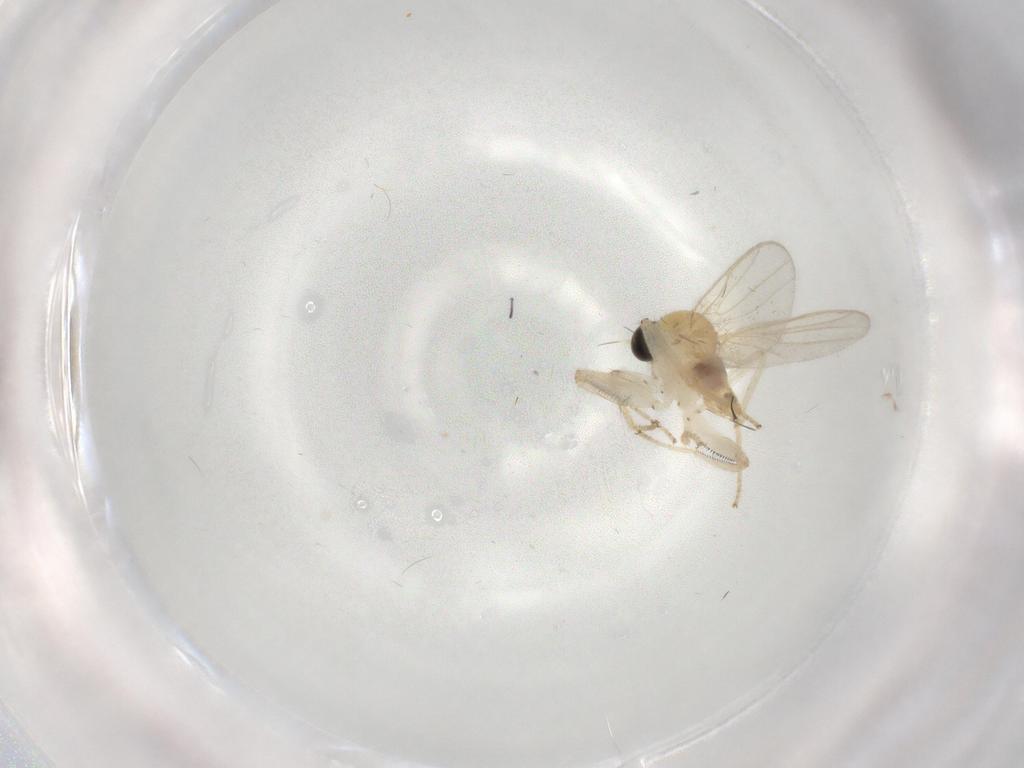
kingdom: Animalia
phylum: Arthropoda
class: Insecta
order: Diptera
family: Hybotidae
